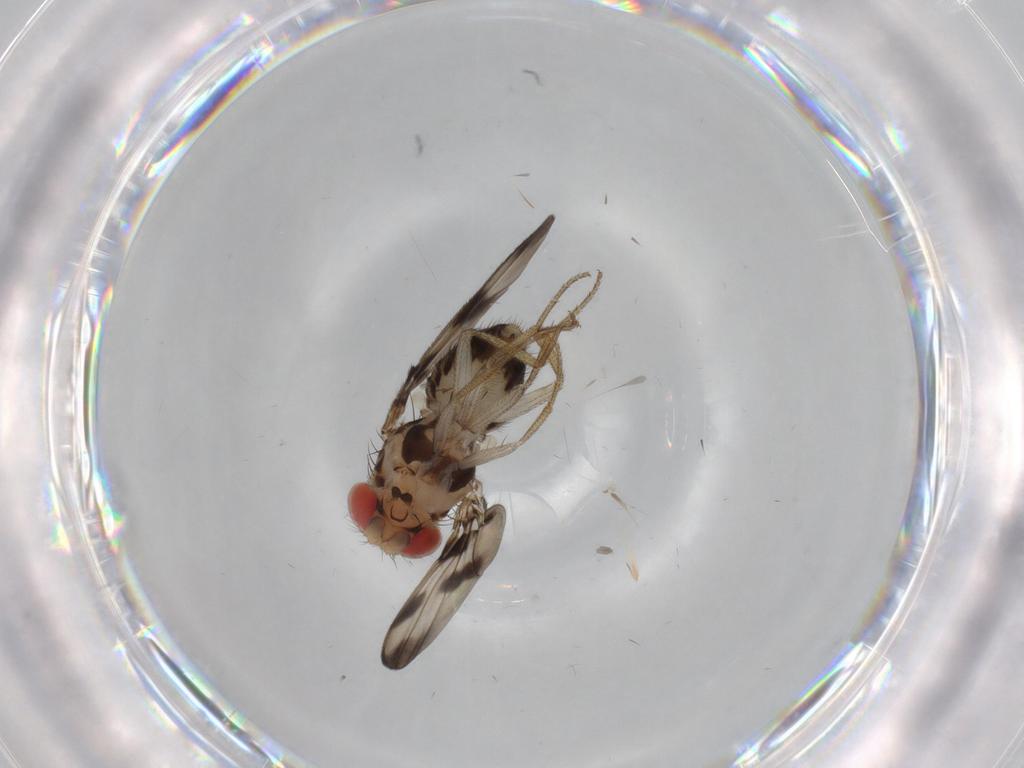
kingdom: Animalia
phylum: Arthropoda
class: Insecta
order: Diptera
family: Drosophilidae
